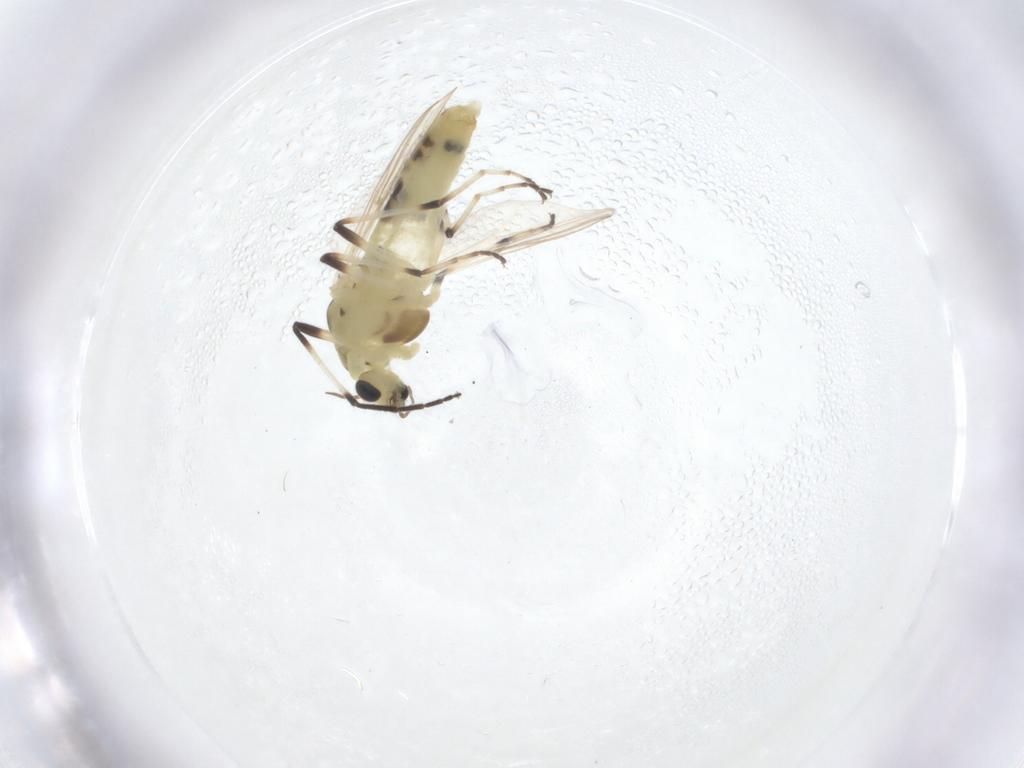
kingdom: Animalia
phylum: Arthropoda
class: Insecta
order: Diptera
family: Chironomidae
